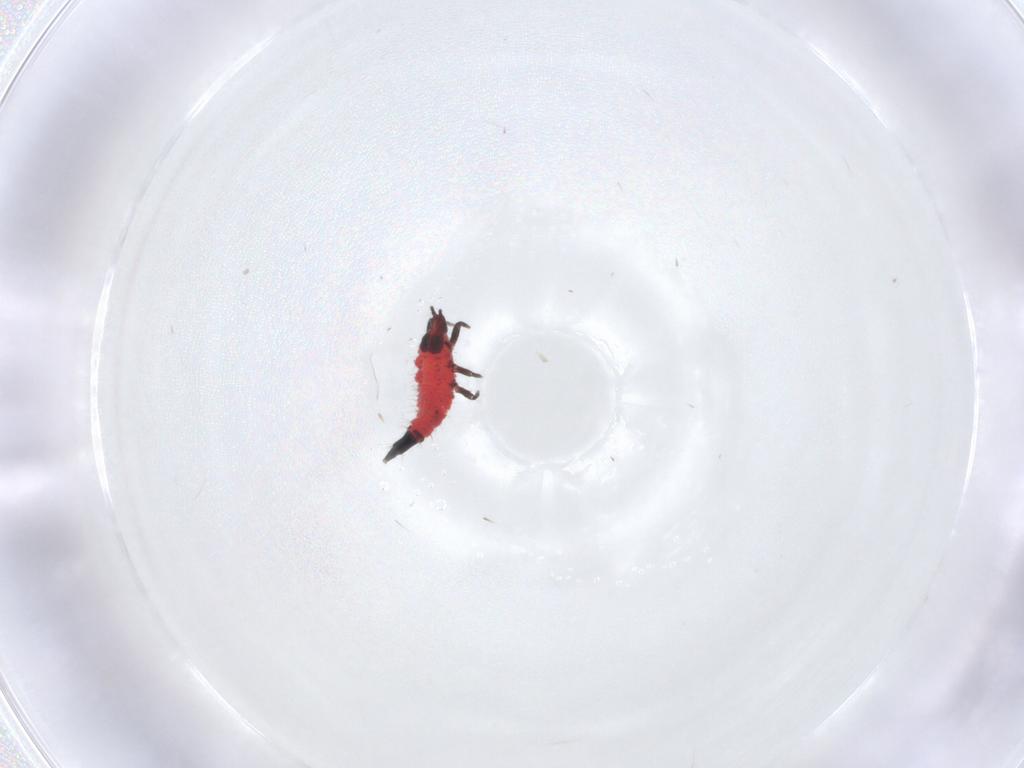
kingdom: Animalia
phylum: Arthropoda
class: Insecta
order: Thysanoptera
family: Phlaeothripidae
